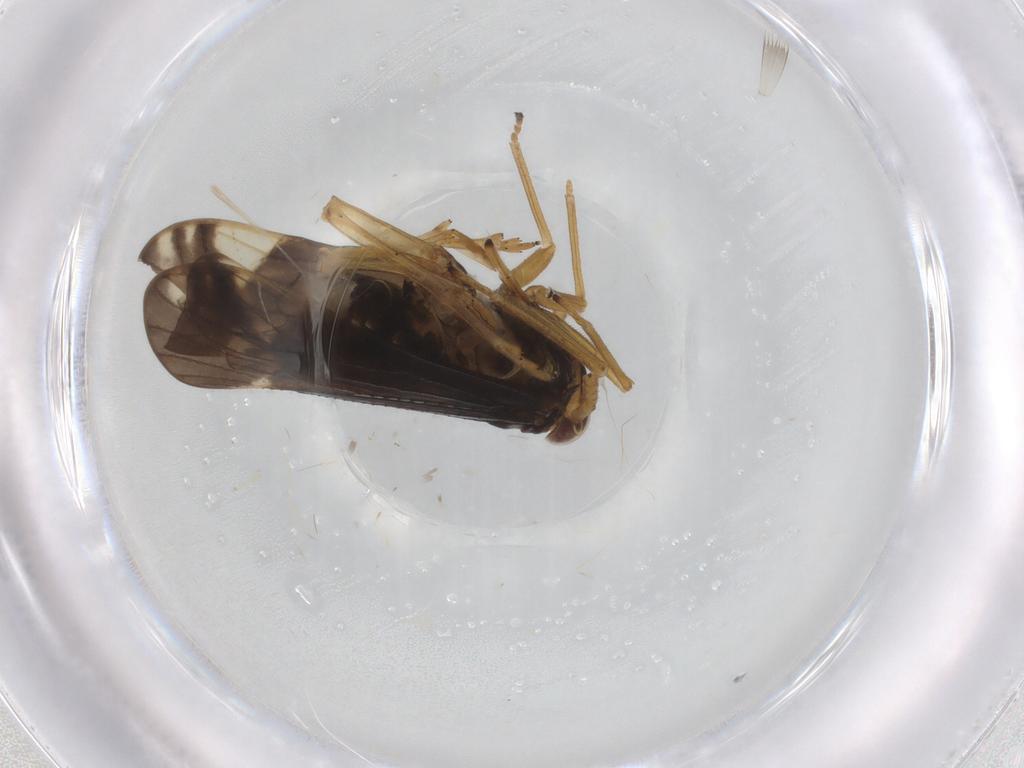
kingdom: Animalia
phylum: Arthropoda
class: Insecta
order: Hemiptera
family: Delphacidae
